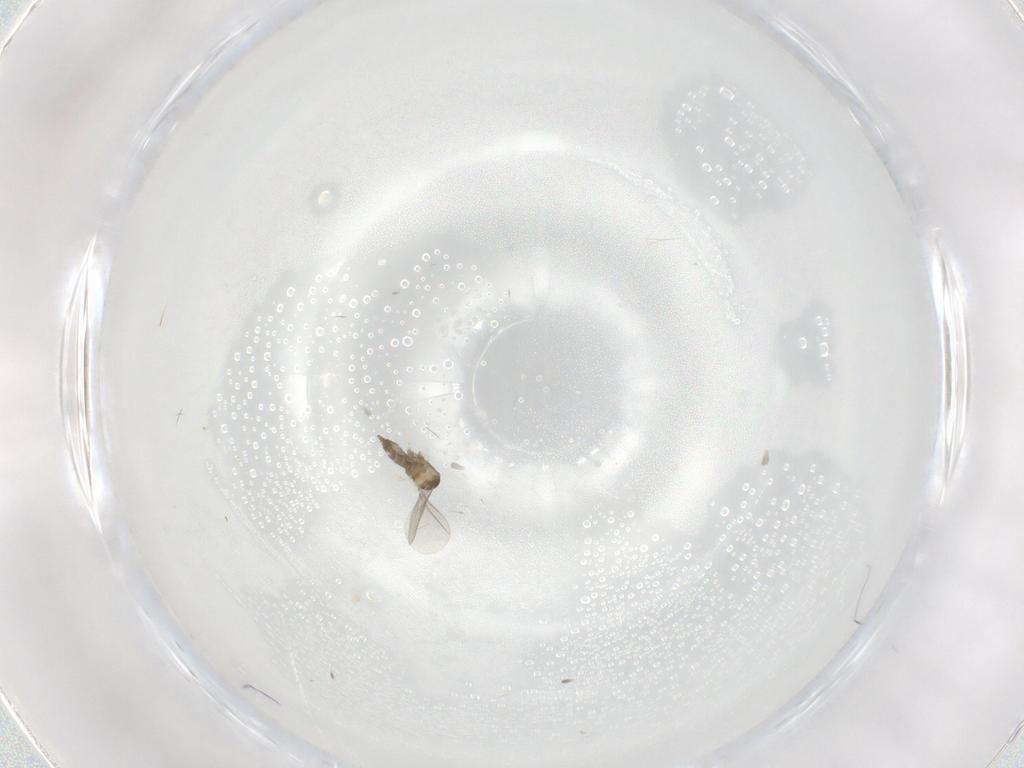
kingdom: Animalia
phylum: Arthropoda
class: Insecta
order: Diptera
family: Cecidomyiidae
